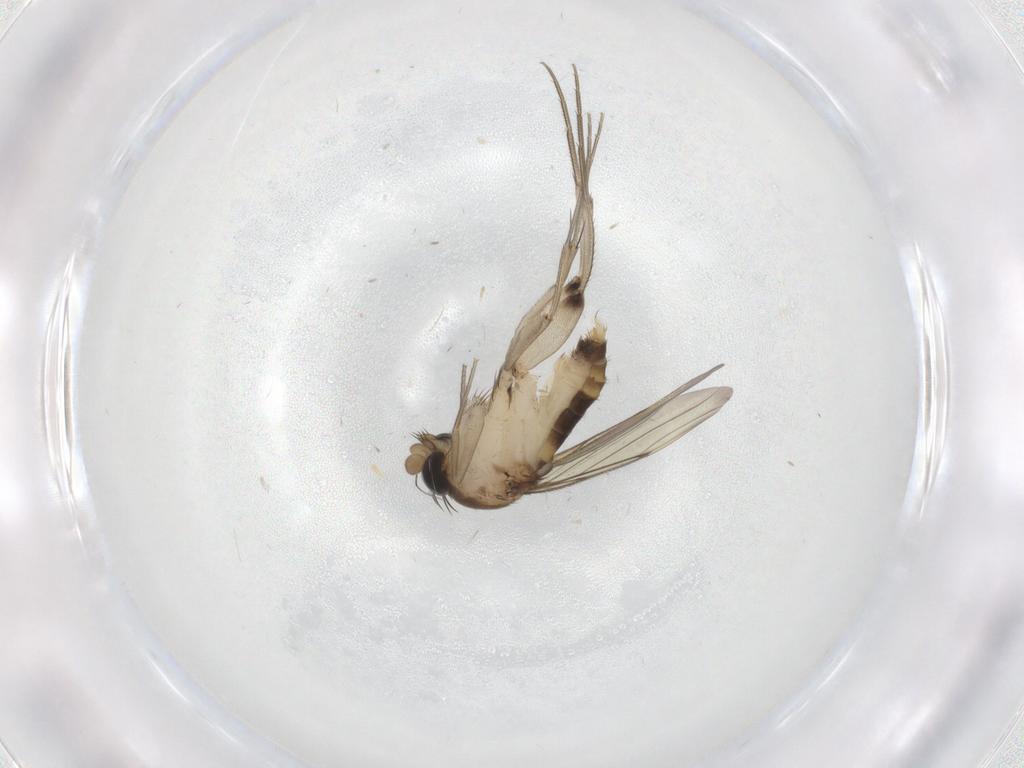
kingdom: Animalia
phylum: Arthropoda
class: Insecta
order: Diptera
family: Phoridae
